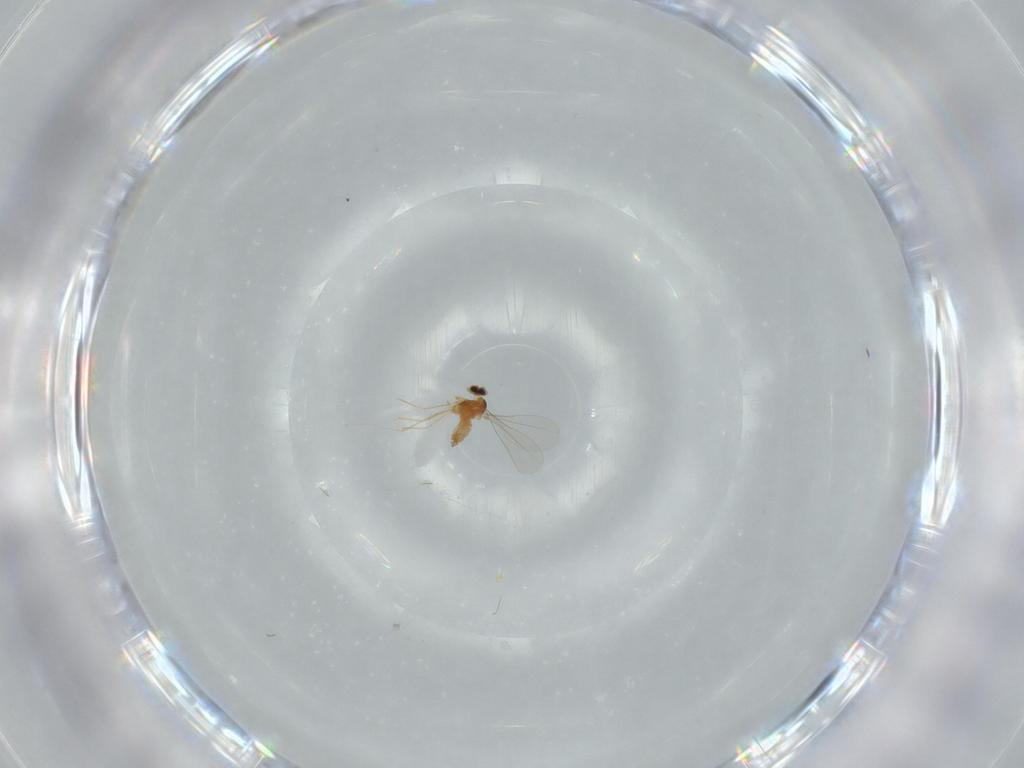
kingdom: Animalia
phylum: Arthropoda
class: Insecta
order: Diptera
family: Cecidomyiidae
